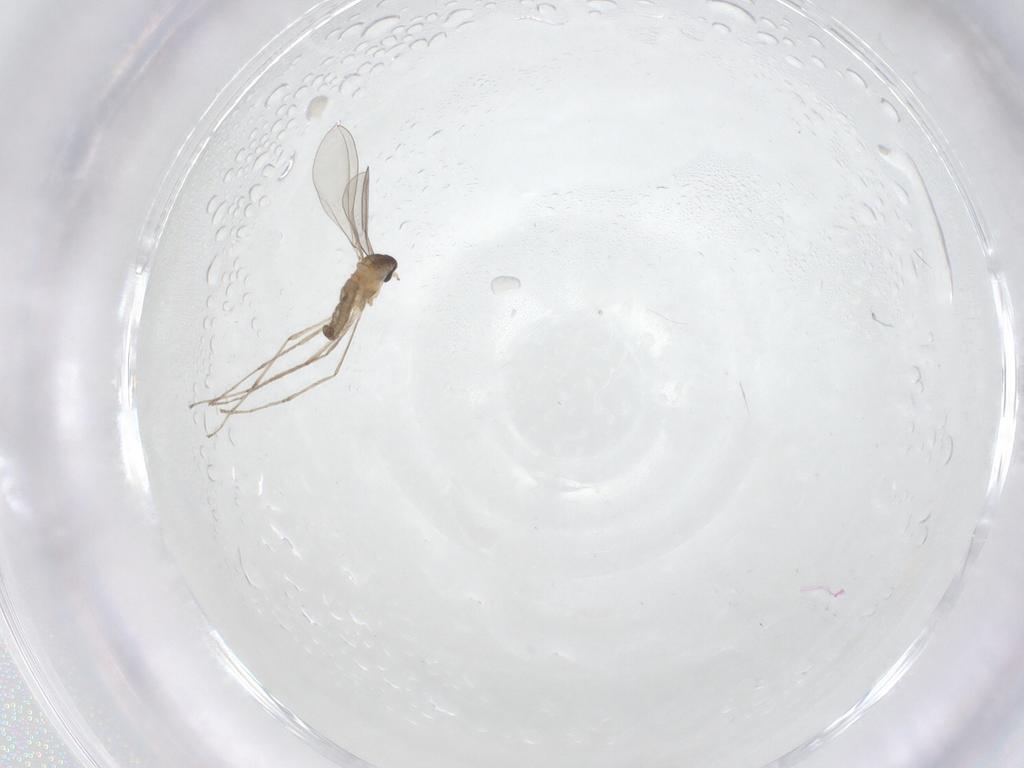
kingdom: Animalia
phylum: Arthropoda
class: Insecta
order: Diptera
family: Cecidomyiidae
